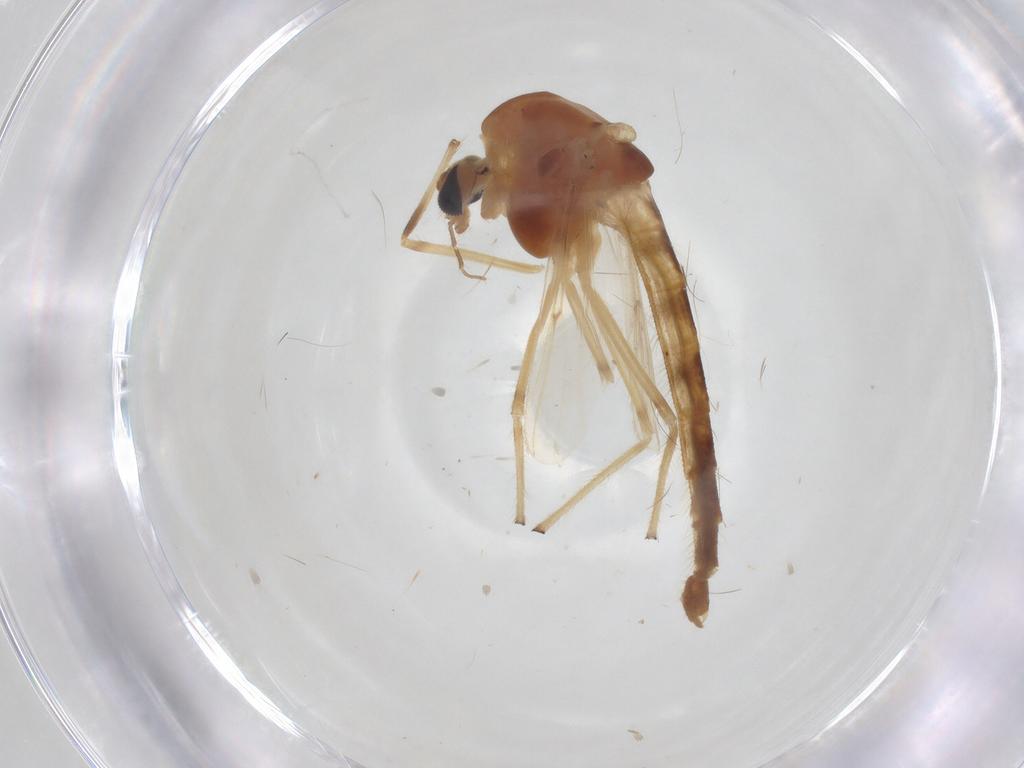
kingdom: Animalia
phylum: Arthropoda
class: Insecta
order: Diptera
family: Chironomidae
